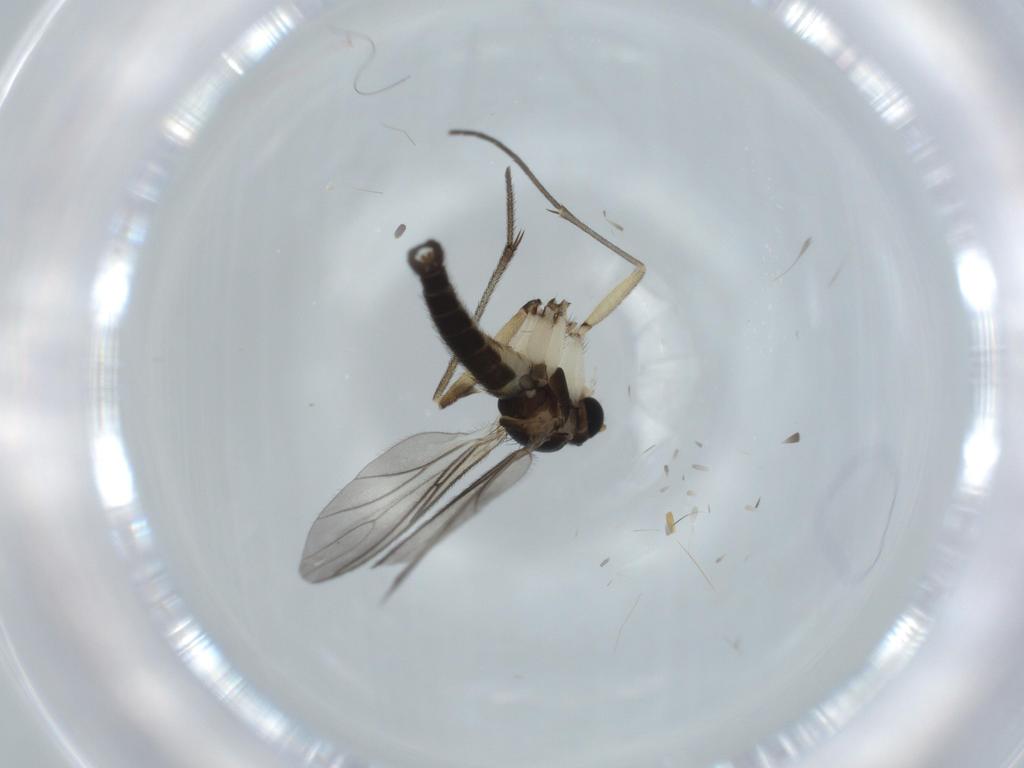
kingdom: Animalia
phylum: Arthropoda
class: Insecta
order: Diptera
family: Sciaridae
